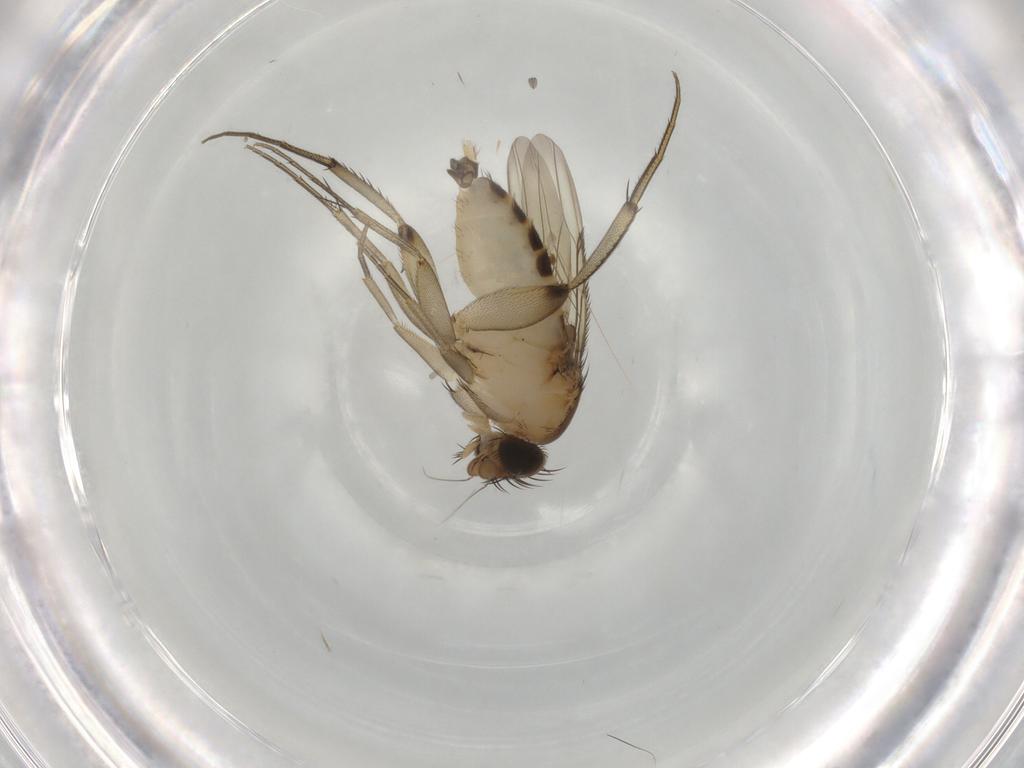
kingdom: Animalia
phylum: Arthropoda
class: Insecta
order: Diptera
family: Phoridae
